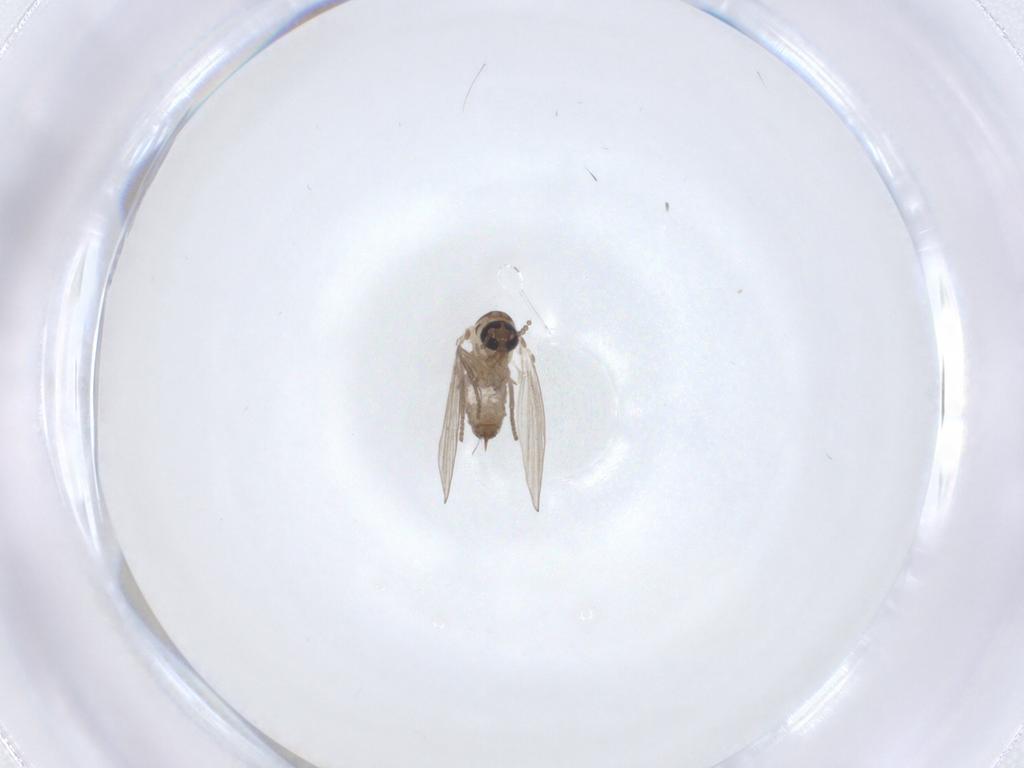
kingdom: Animalia
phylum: Arthropoda
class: Insecta
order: Diptera
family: Psychodidae
